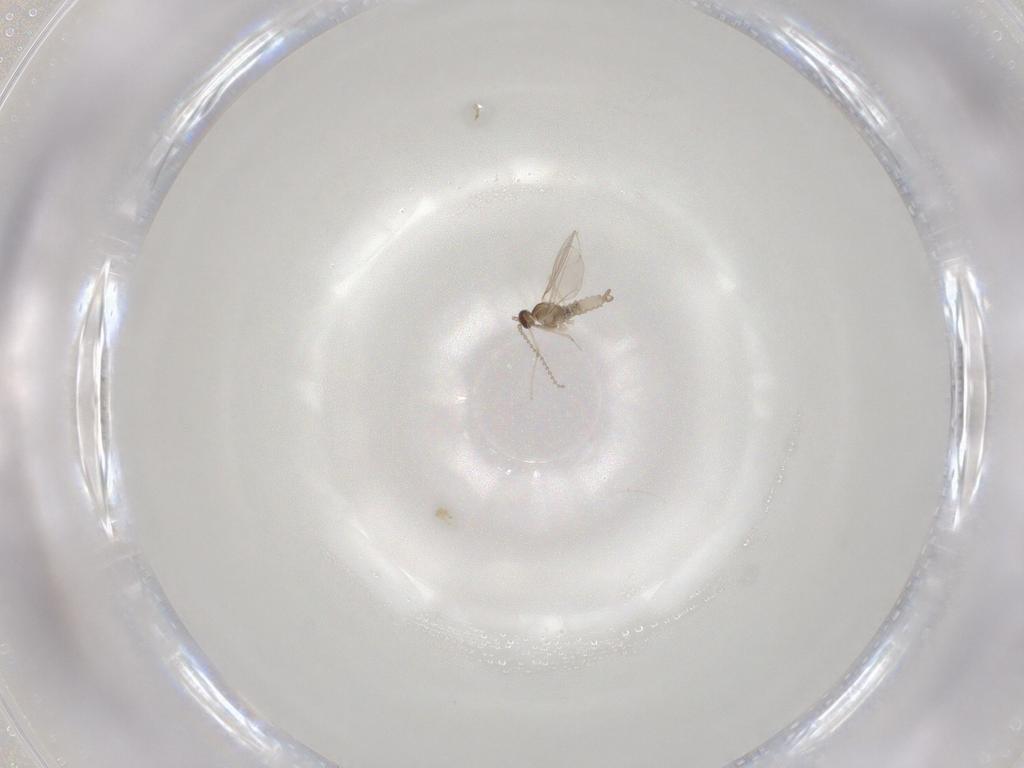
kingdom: Animalia
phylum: Arthropoda
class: Insecta
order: Diptera
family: Cecidomyiidae
